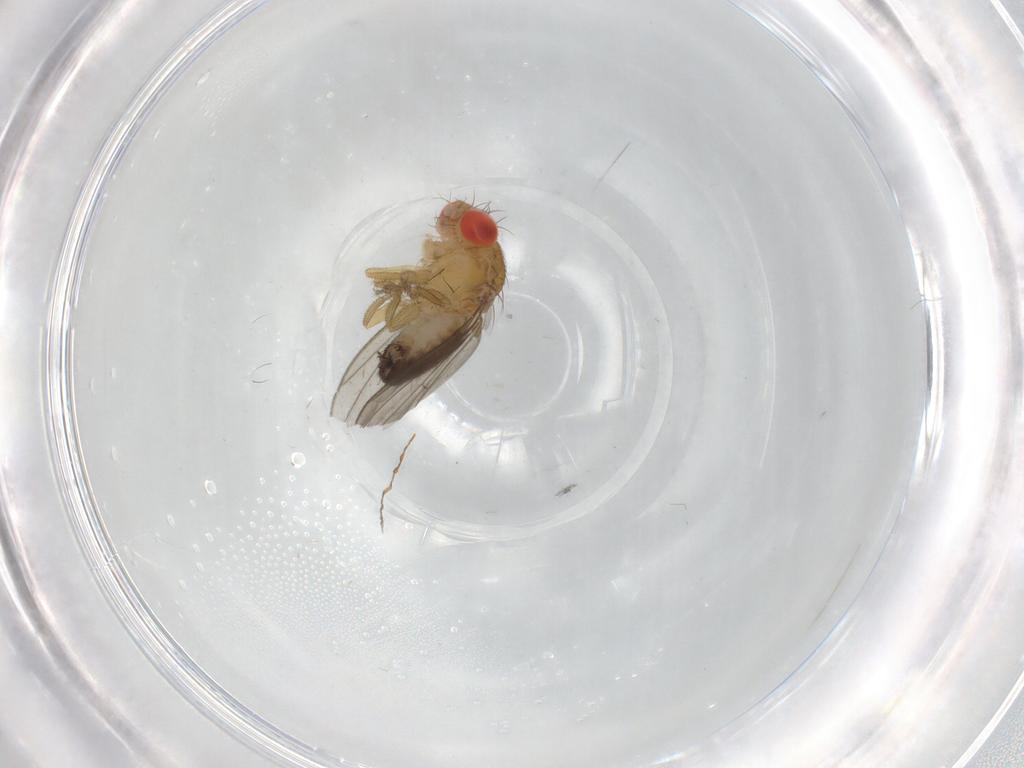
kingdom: Animalia
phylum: Arthropoda
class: Insecta
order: Diptera
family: Drosophilidae
